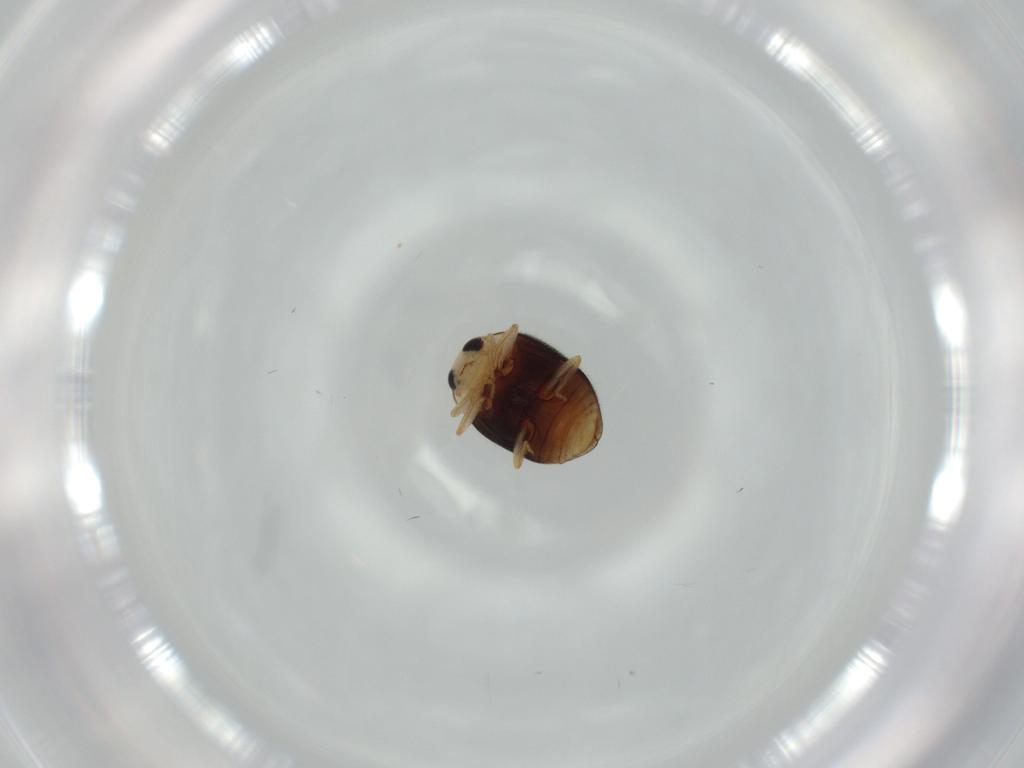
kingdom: Animalia
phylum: Arthropoda
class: Insecta
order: Coleoptera
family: Coccinellidae
